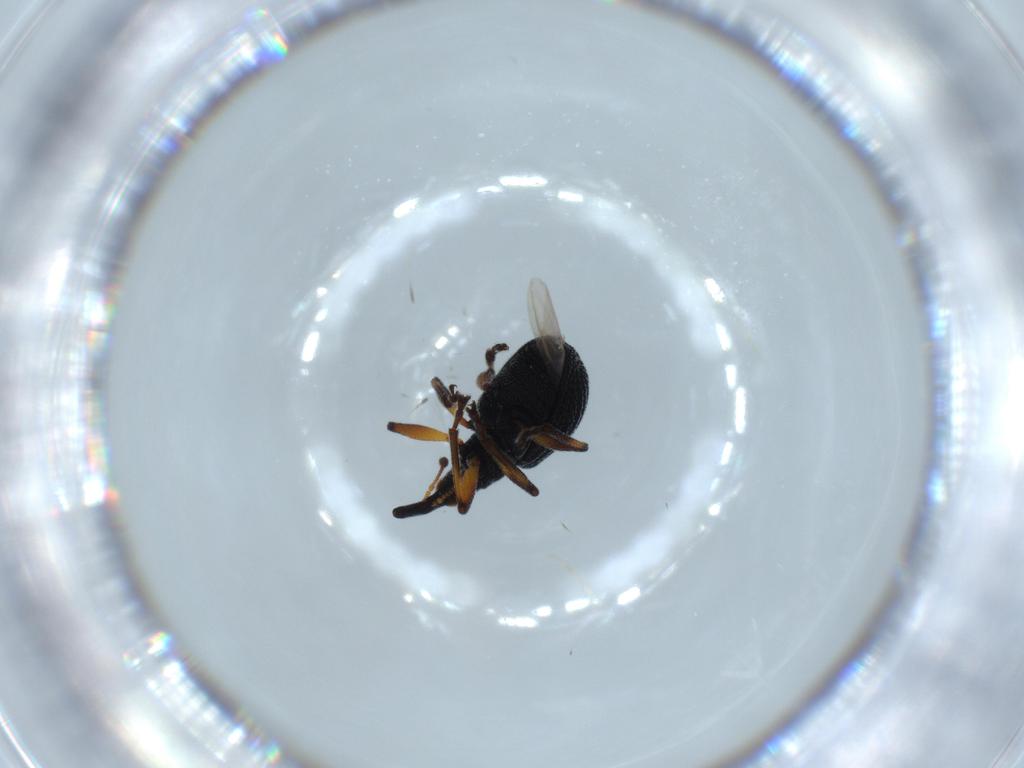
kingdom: Animalia
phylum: Arthropoda
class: Insecta
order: Coleoptera
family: Brentidae
